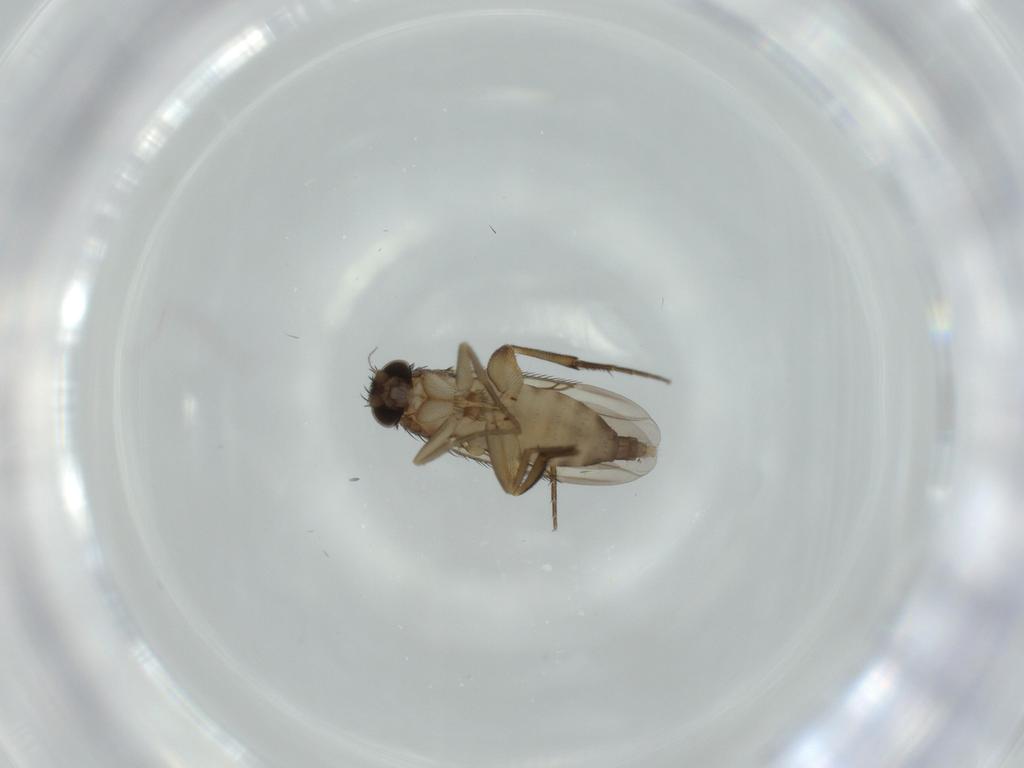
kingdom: Animalia
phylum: Arthropoda
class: Insecta
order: Diptera
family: Phoridae
